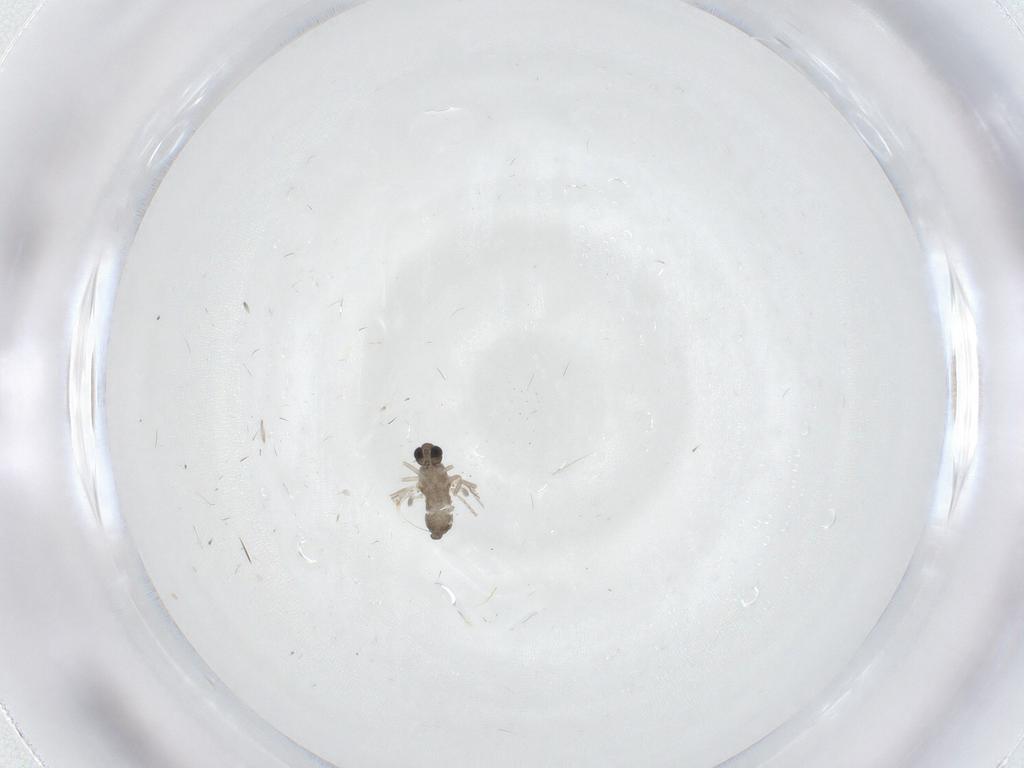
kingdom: Animalia
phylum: Arthropoda
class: Insecta
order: Diptera
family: Cecidomyiidae
